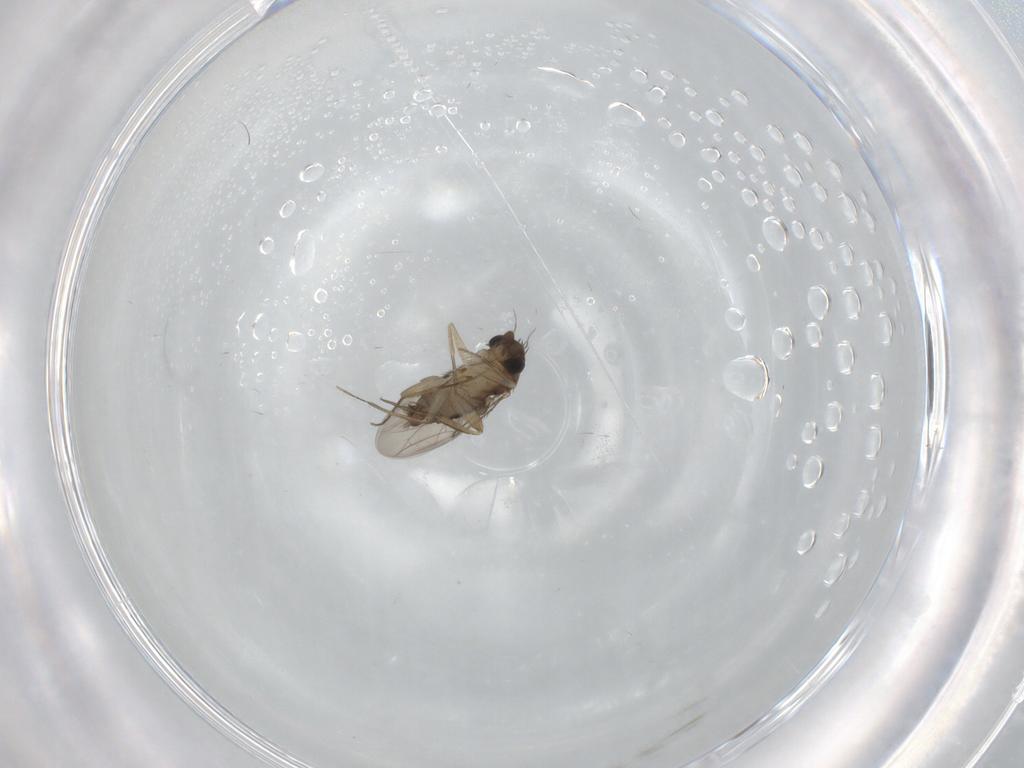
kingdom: Animalia
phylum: Arthropoda
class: Insecta
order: Diptera
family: Phoridae
